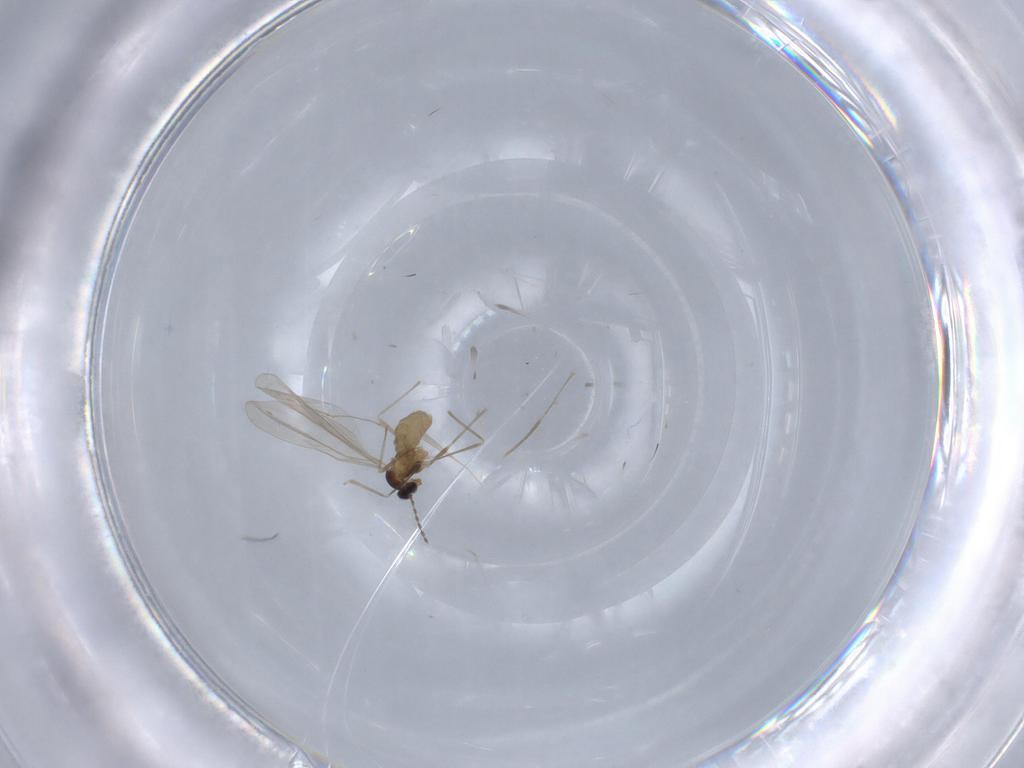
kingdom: Animalia
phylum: Arthropoda
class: Insecta
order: Diptera
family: Cecidomyiidae
